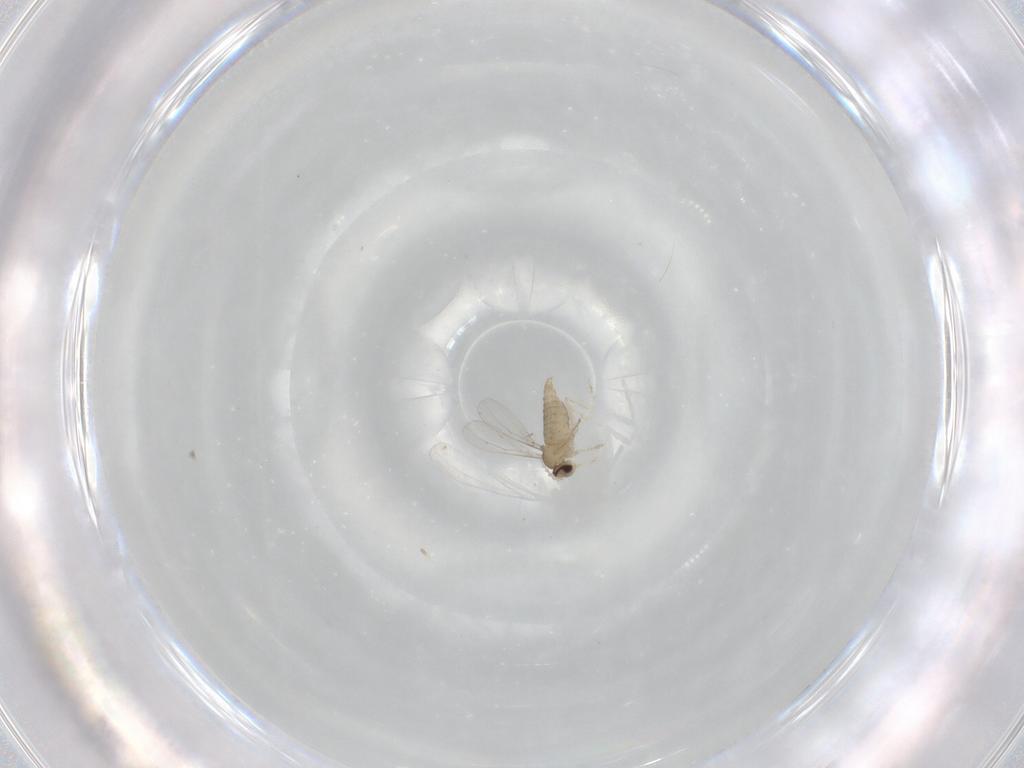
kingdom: Animalia
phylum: Arthropoda
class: Insecta
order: Diptera
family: Cecidomyiidae
